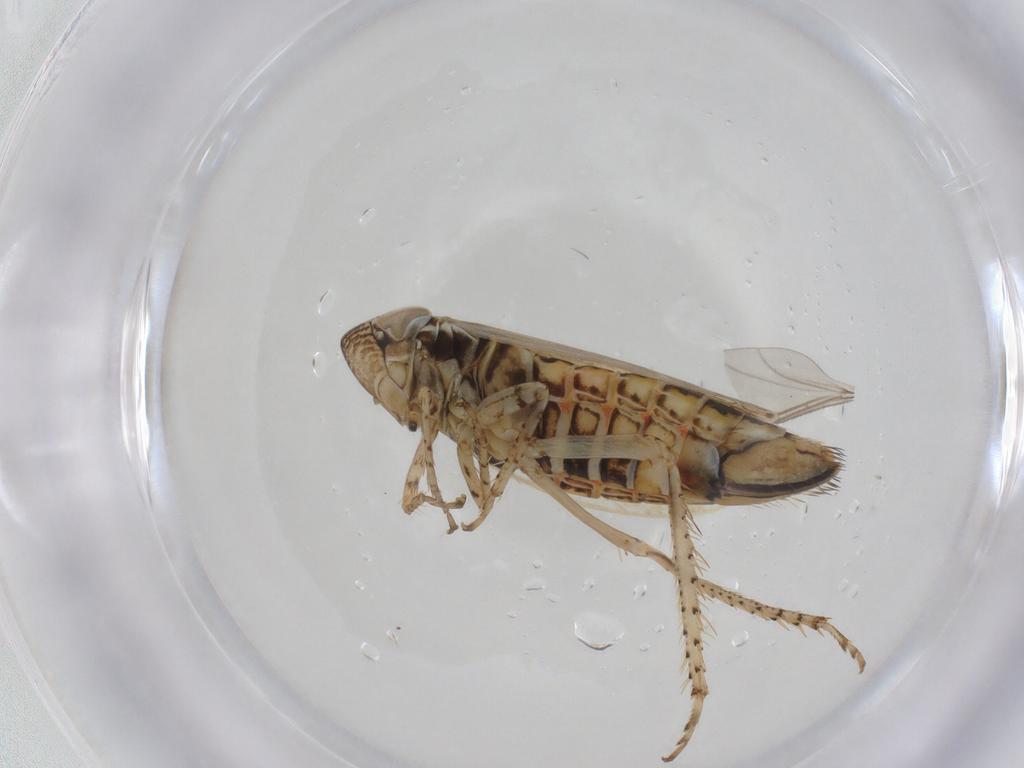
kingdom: Animalia
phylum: Arthropoda
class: Insecta
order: Hemiptera
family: Cicadellidae
